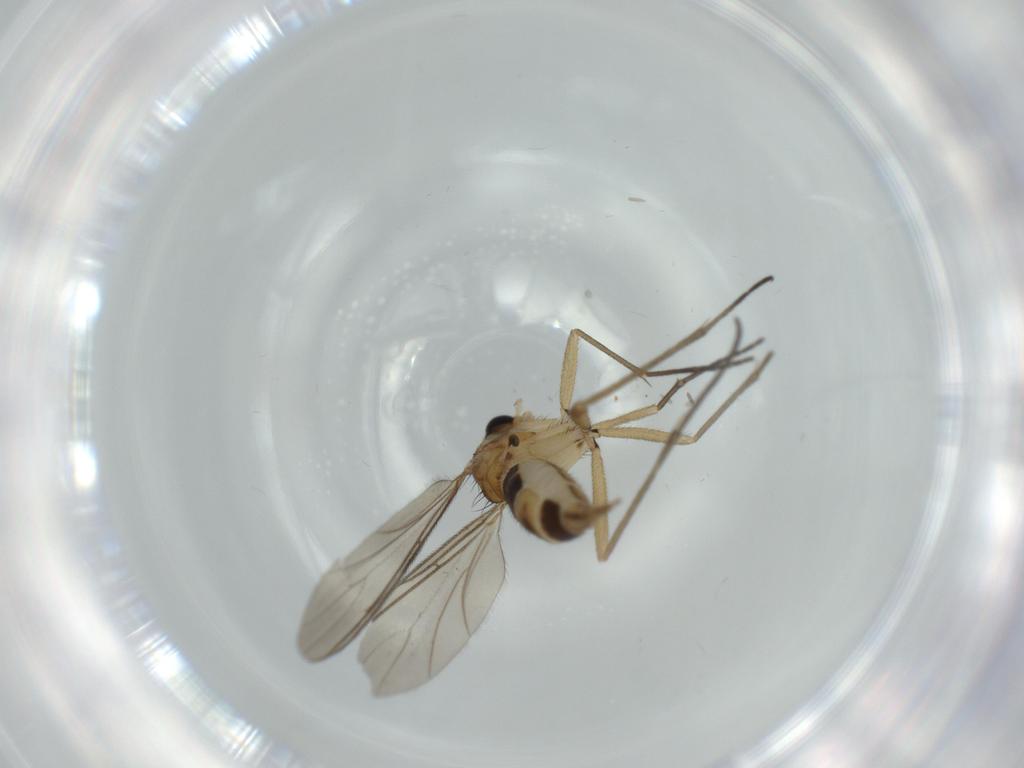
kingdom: Animalia
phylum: Arthropoda
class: Insecta
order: Diptera
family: Sciaridae
